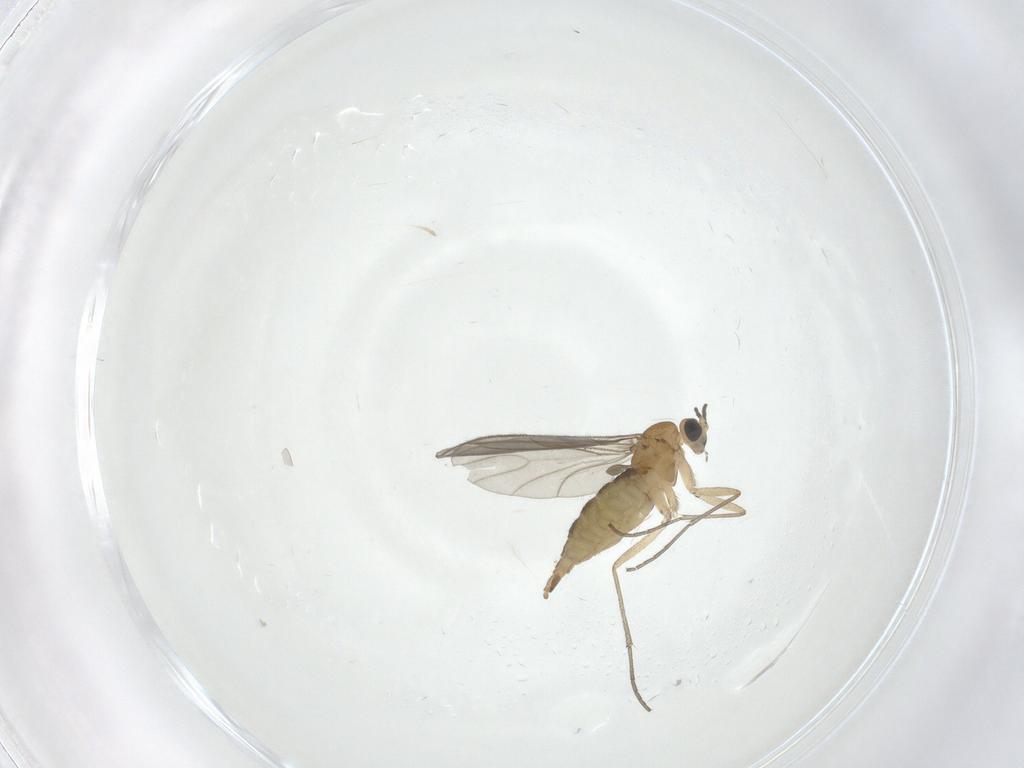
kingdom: Animalia
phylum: Arthropoda
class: Insecta
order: Diptera
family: Sciaridae
